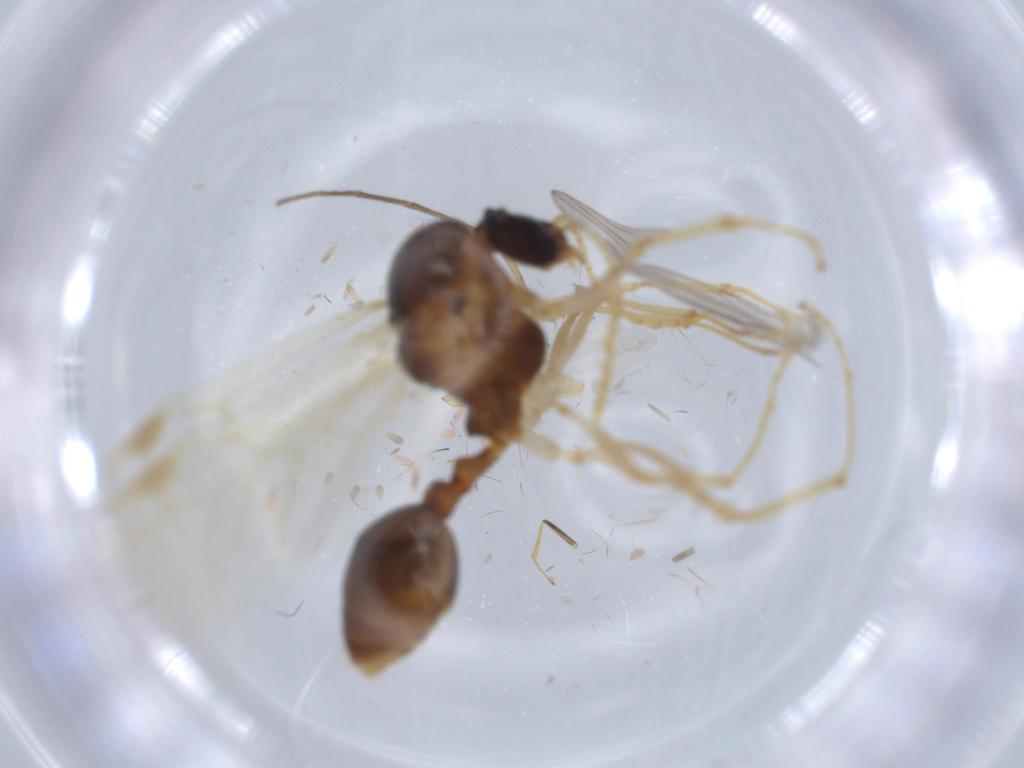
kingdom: Animalia
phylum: Arthropoda
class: Insecta
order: Hymenoptera
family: Formicidae
